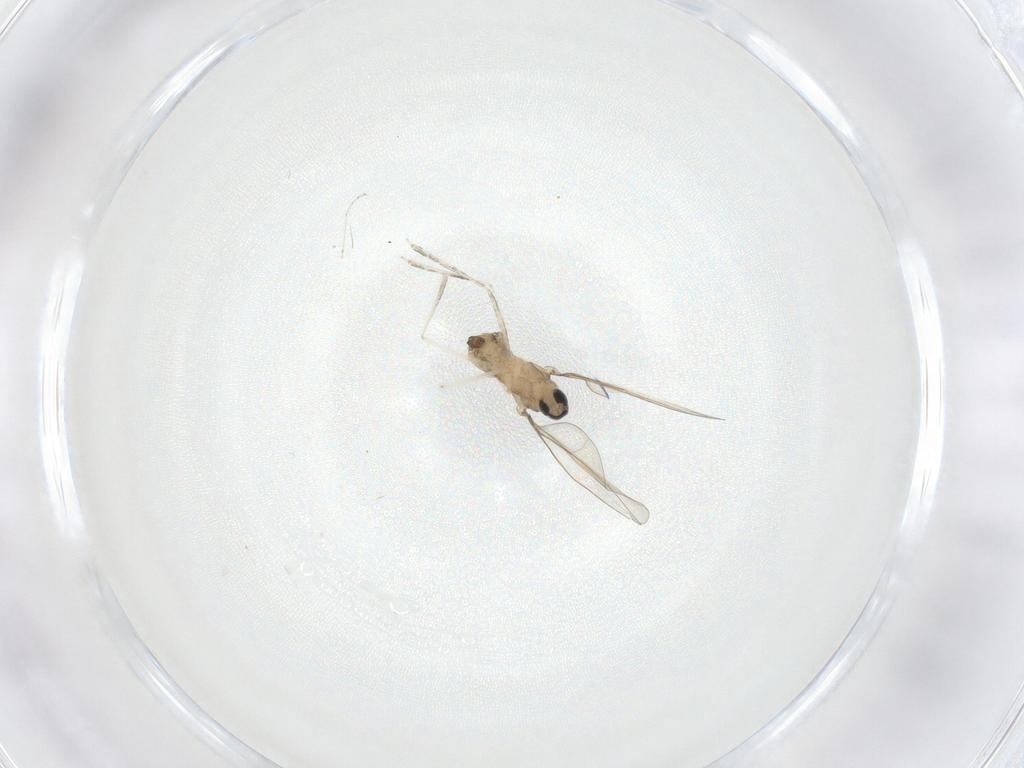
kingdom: Animalia
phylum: Arthropoda
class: Insecta
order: Diptera
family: Cecidomyiidae
